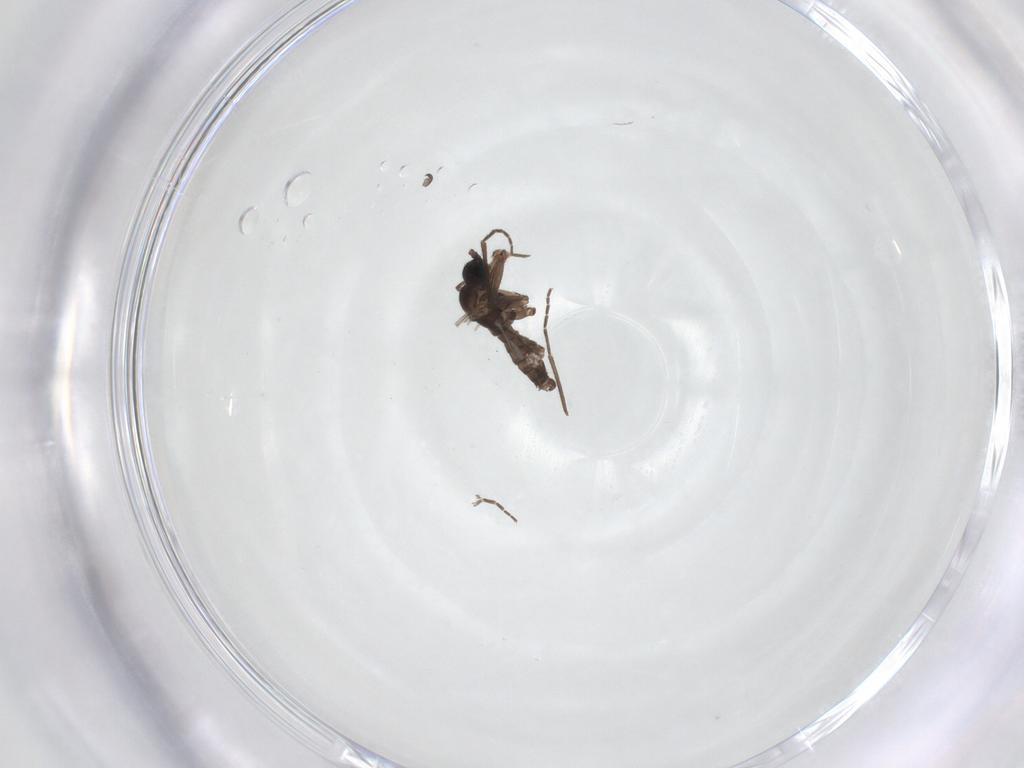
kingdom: Animalia
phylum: Arthropoda
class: Insecta
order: Diptera
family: Sciaridae
